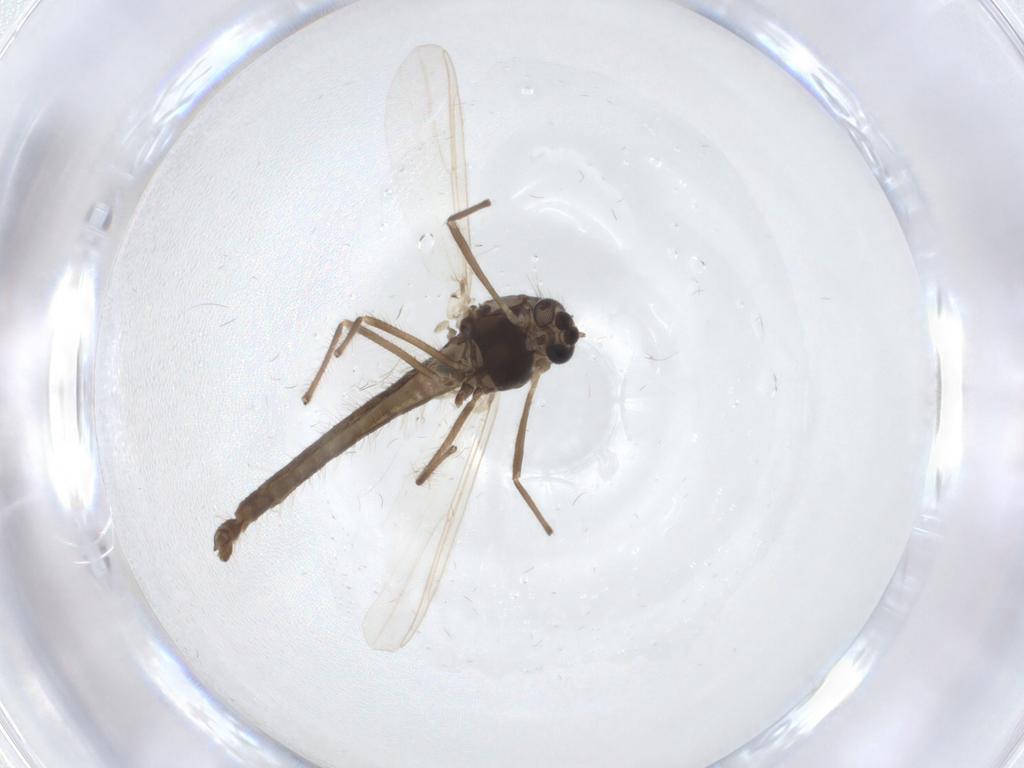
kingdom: Animalia
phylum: Arthropoda
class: Insecta
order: Diptera
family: Chironomidae
